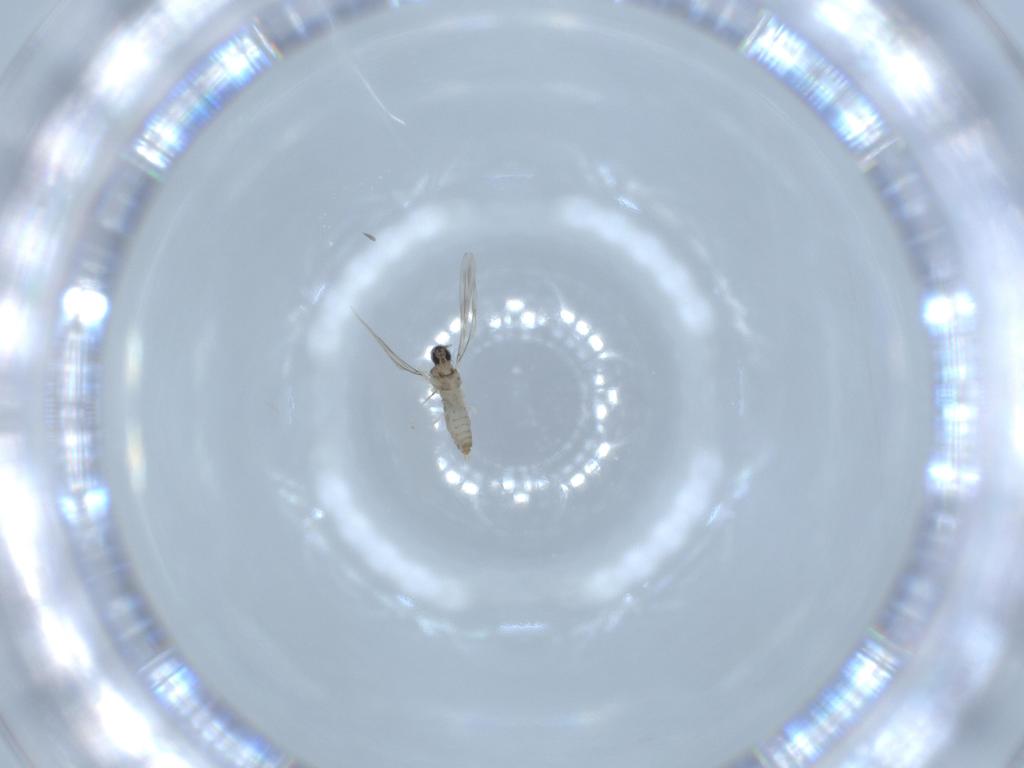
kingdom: Animalia
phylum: Arthropoda
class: Insecta
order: Diptera
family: Cecidomyiidae
